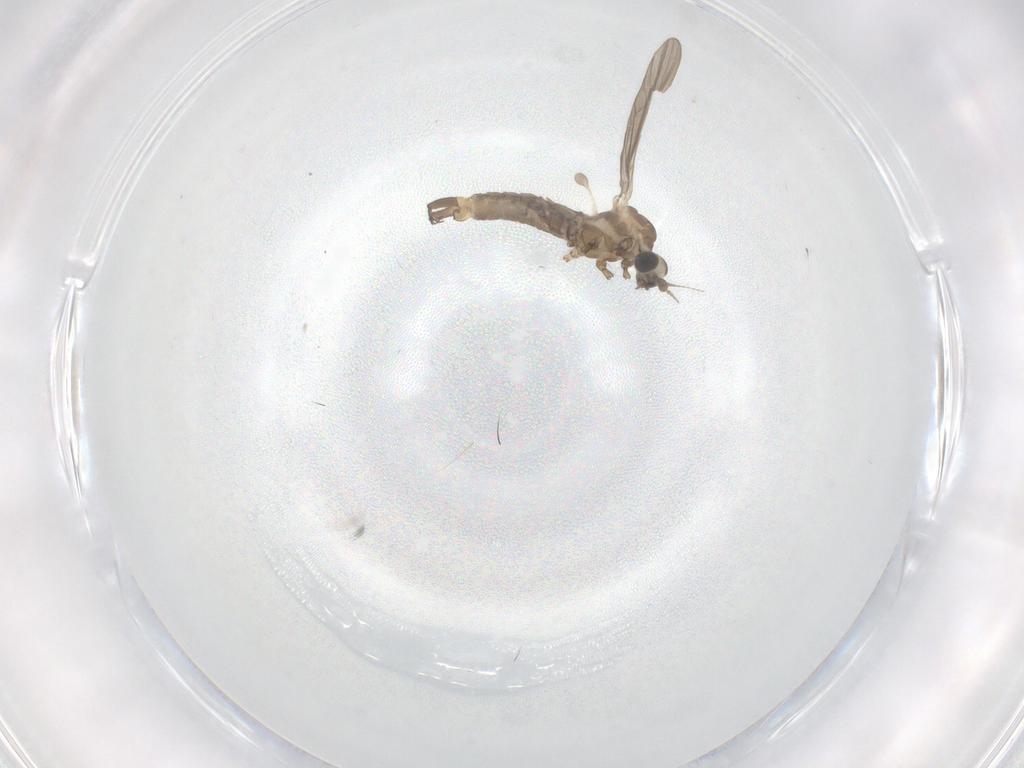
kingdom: Animalia
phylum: Arthropoda
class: Insecta
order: Diptera
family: Limoniidae
